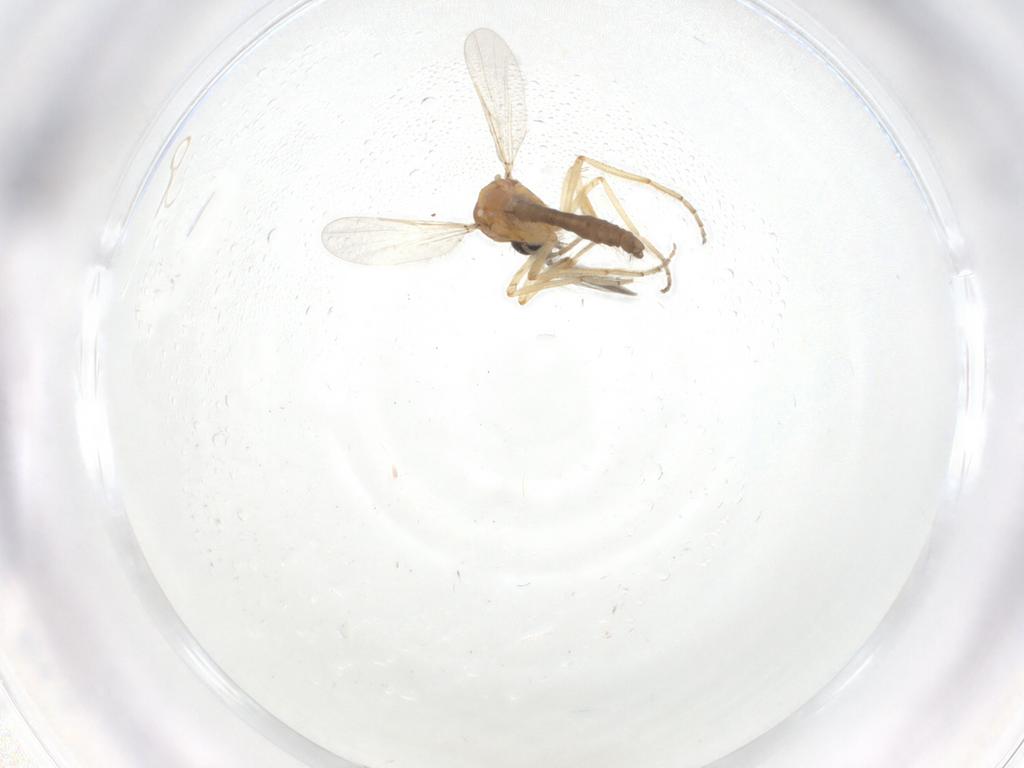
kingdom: Animalia
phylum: Arthropoda
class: Insecta
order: Diptera
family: Ceratopogonidae
